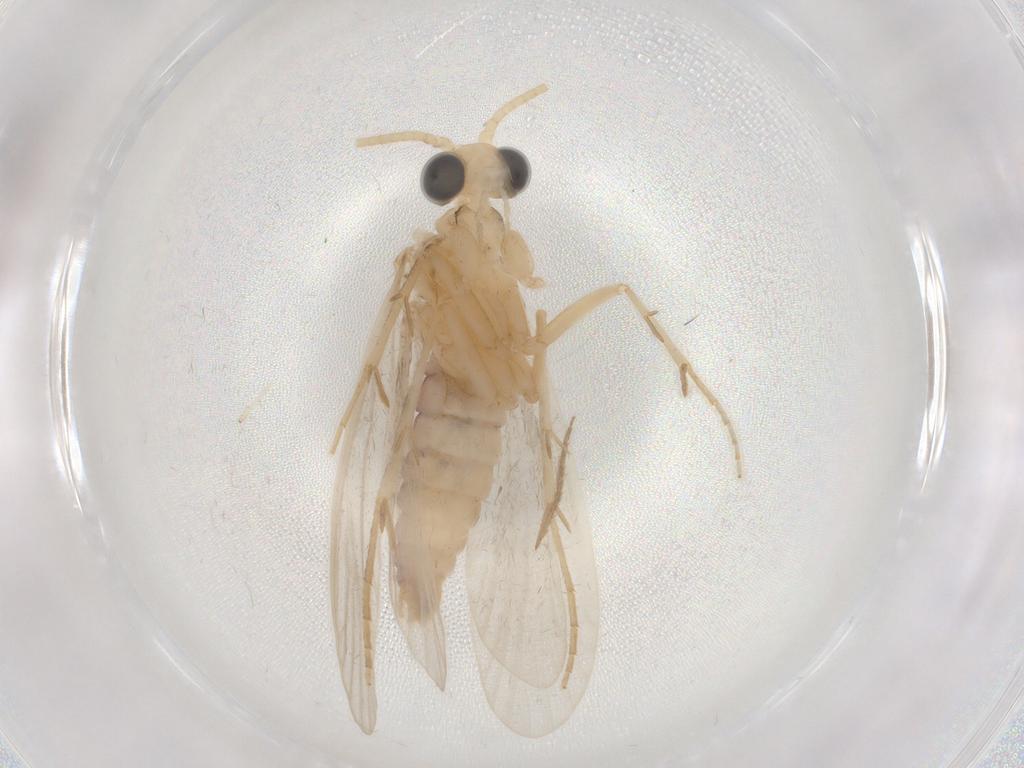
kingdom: Animalia
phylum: Arthropoda
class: Insecta
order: Trichoptera
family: Ecnomidae
